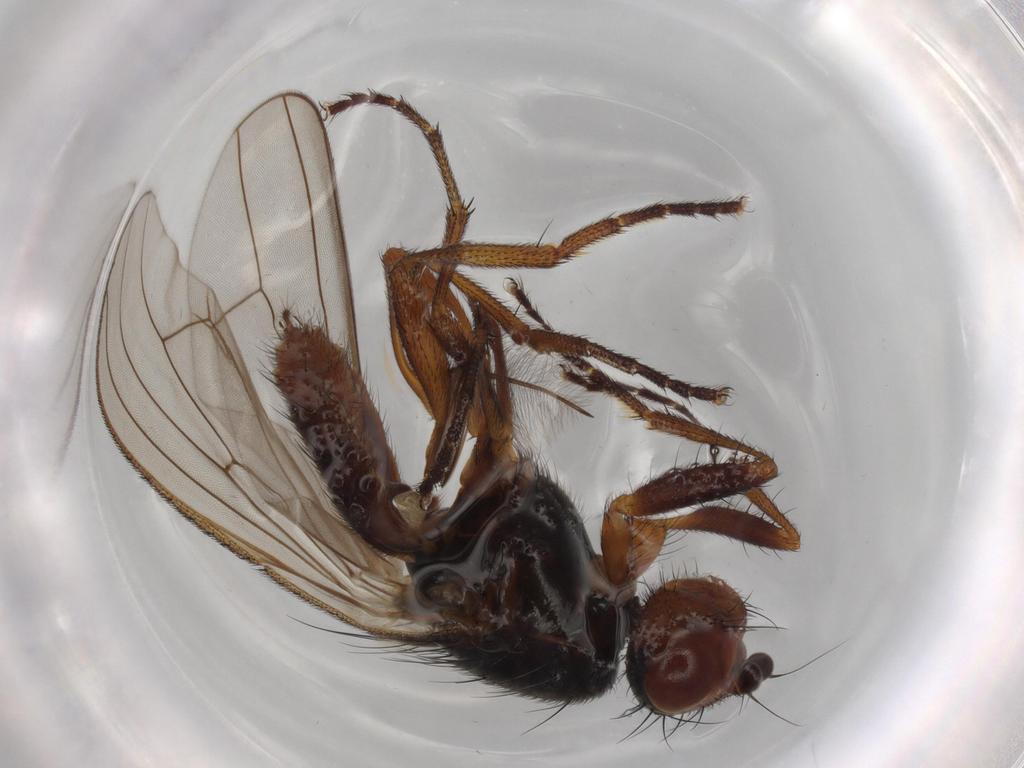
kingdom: Animalia
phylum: Arthropoda
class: Insecta
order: Diptera
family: Heleomyzidae
